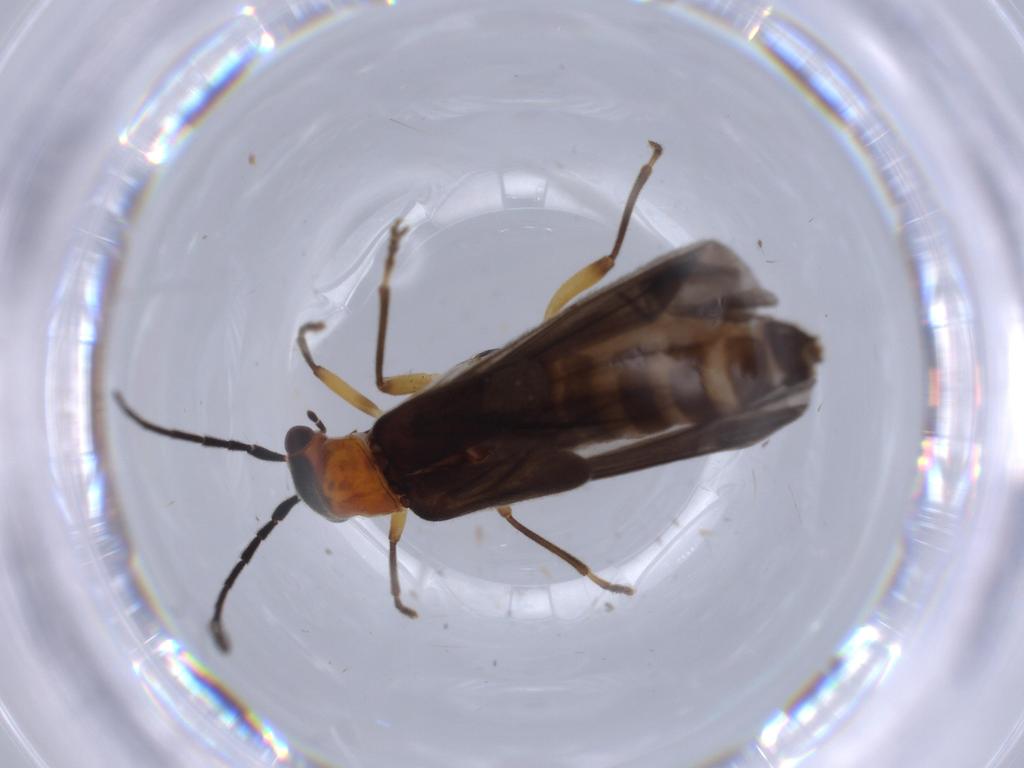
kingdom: Animalia
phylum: Arthropoda
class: Insecta
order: Coleoptera
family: Cantharidae
